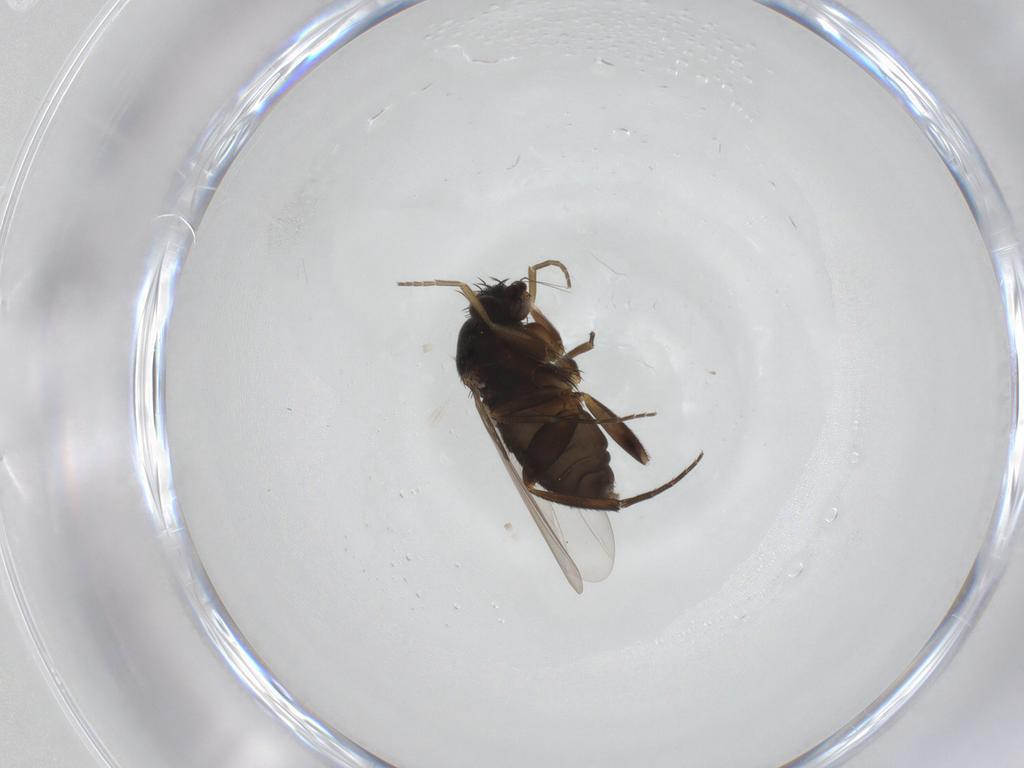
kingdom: Animalia
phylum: Arthropoda
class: Insecta
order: Diptera
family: Phoridae
